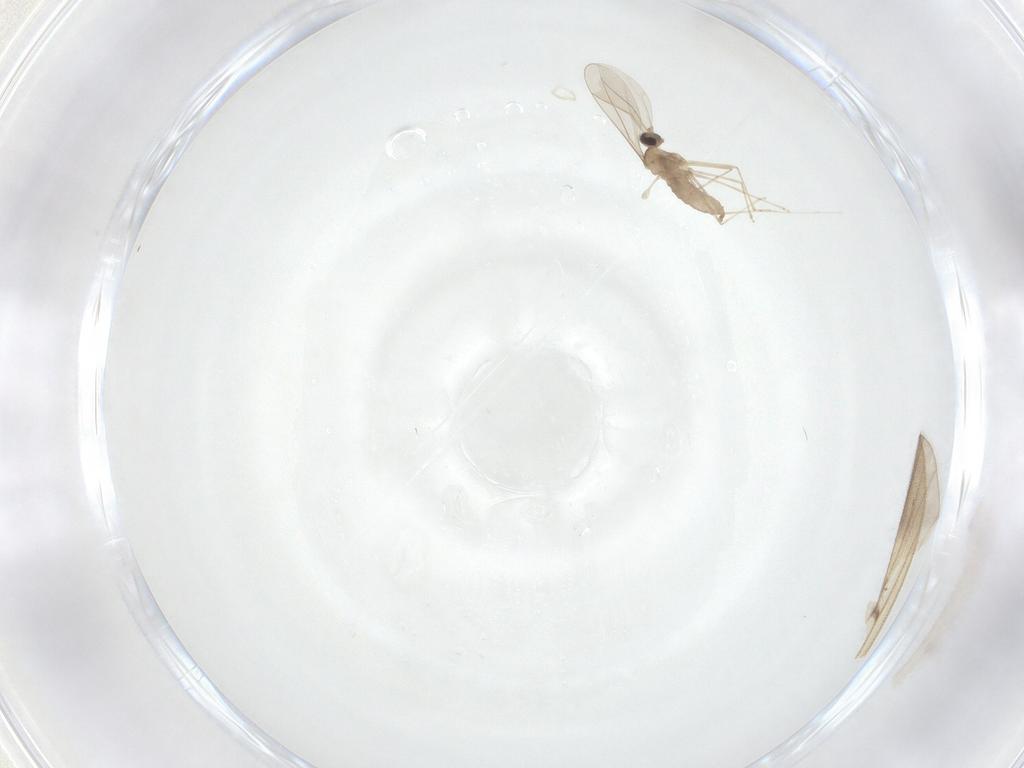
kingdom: Animalia
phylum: Arthropoda
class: Insecta
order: Diptera
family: Cecidomyiidae
